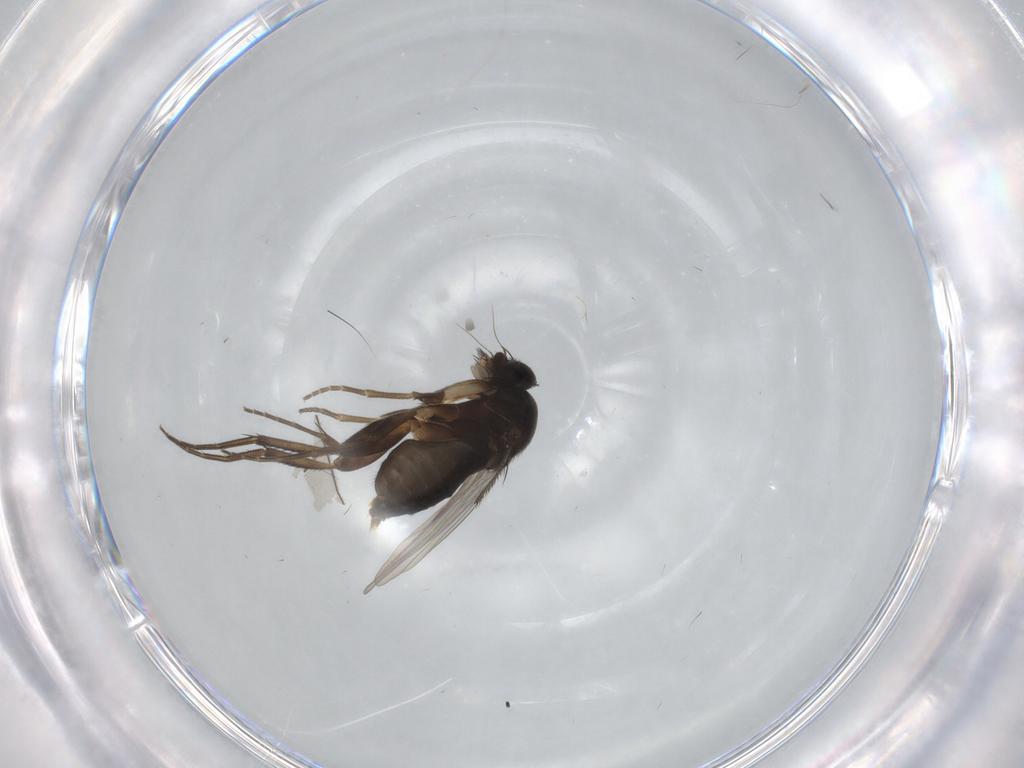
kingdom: Animalia
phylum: Arthropoda
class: Insecta
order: Diptera
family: Phoridae
